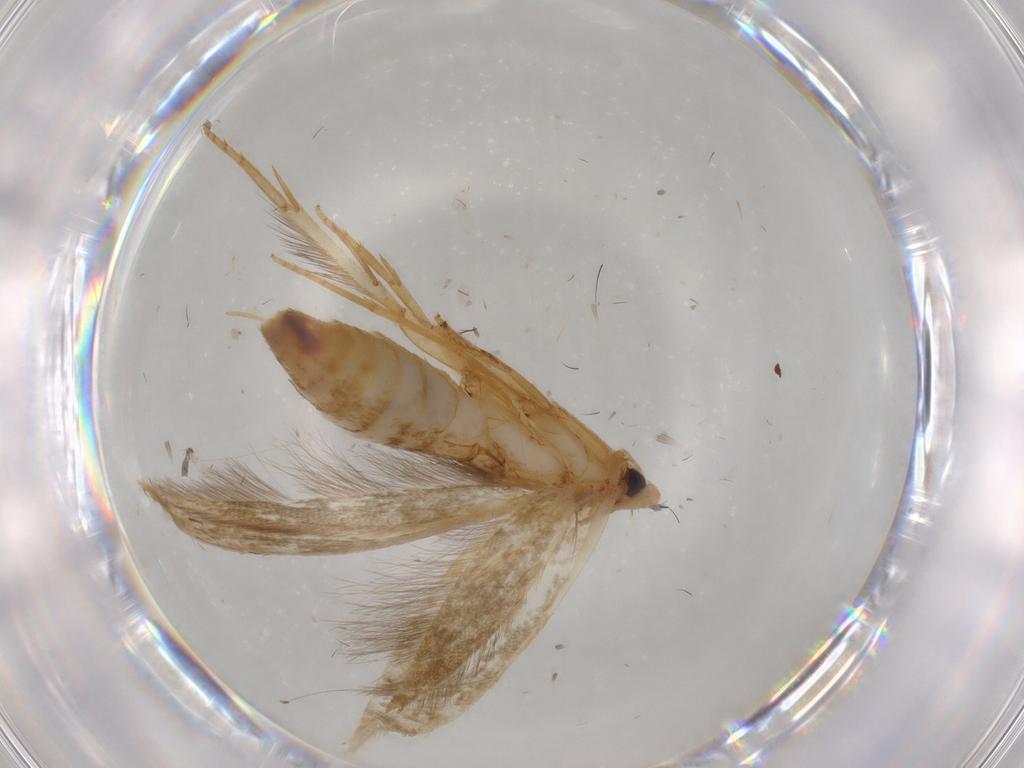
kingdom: Animalia
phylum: Arthropoda
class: Insecta
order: Lepidoptera
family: Tineidae
